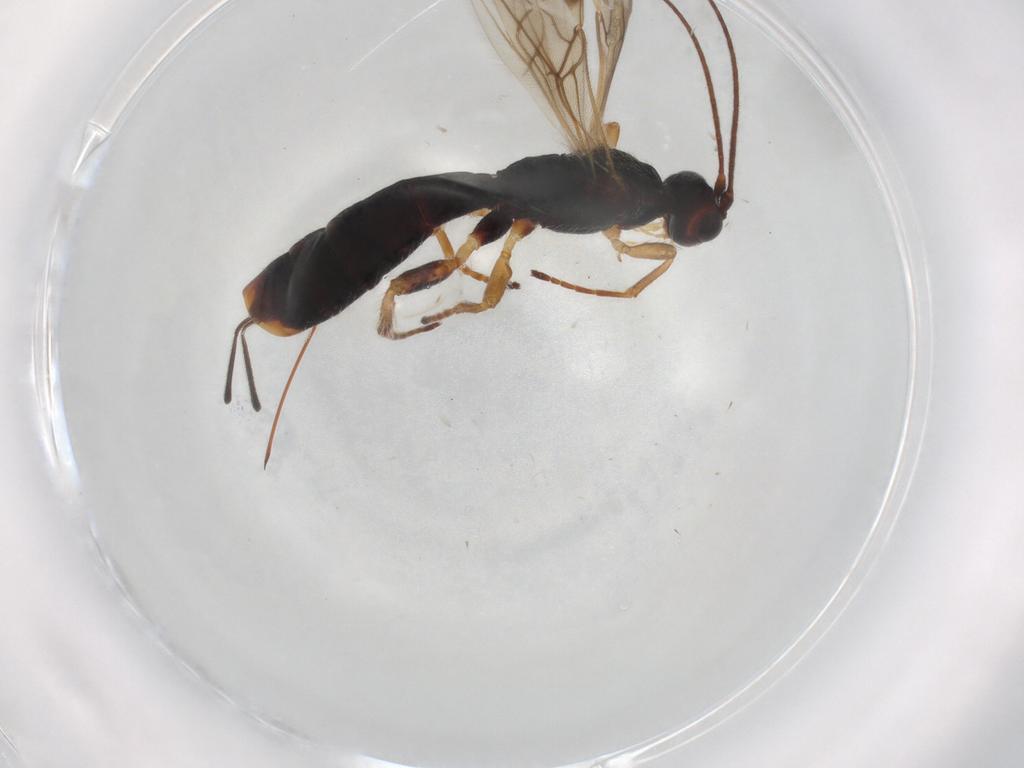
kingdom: Animalia
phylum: Arthropoda
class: Insecta
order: Hymenoptera
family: Braconidae
